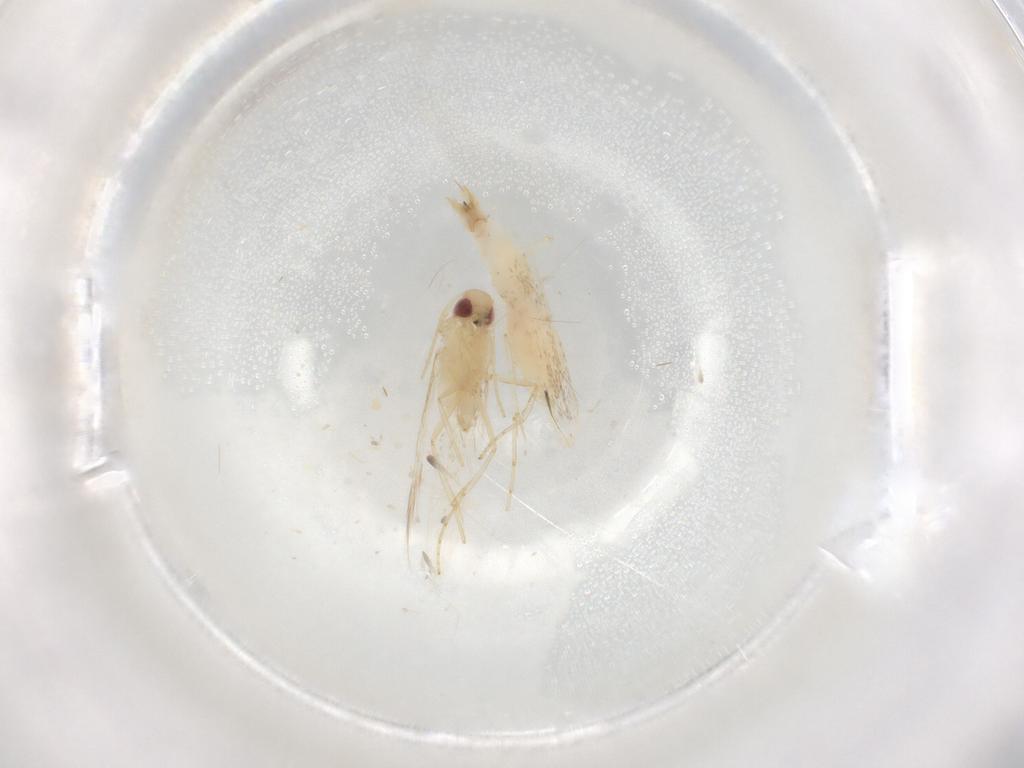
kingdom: Animalia
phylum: Arthropoda
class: Insecta
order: Lepidoptera
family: Cosmopterigidae
